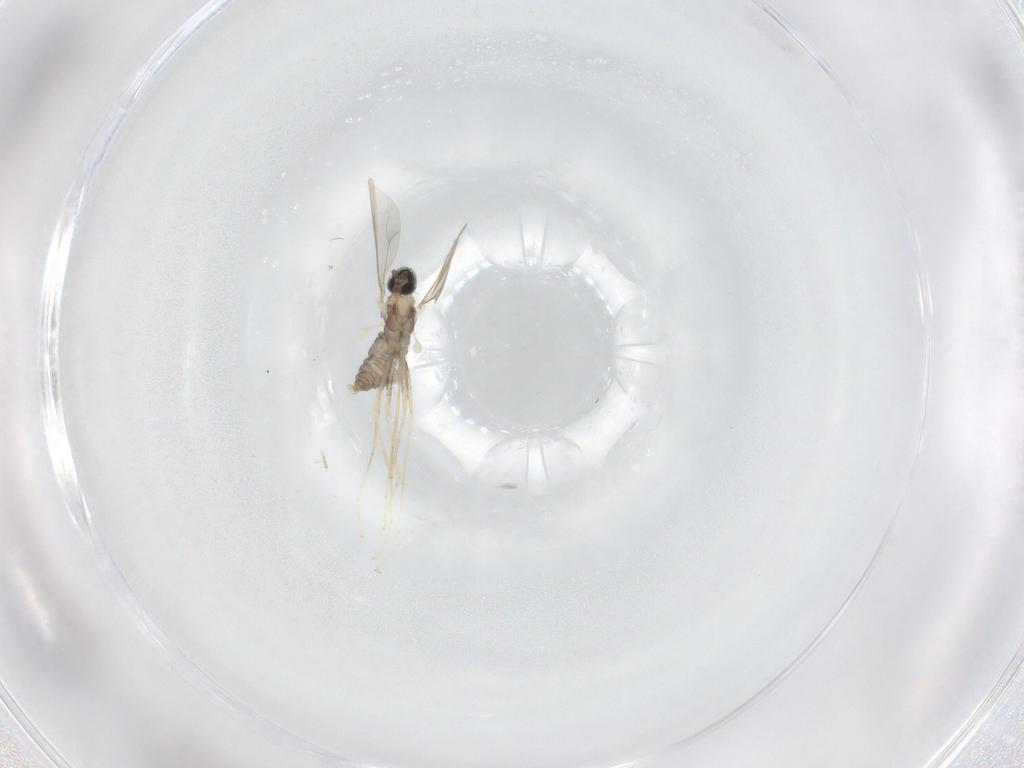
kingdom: Animalia
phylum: Arthropoda
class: Insecta
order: Diptera
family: Cecidomyiidae
